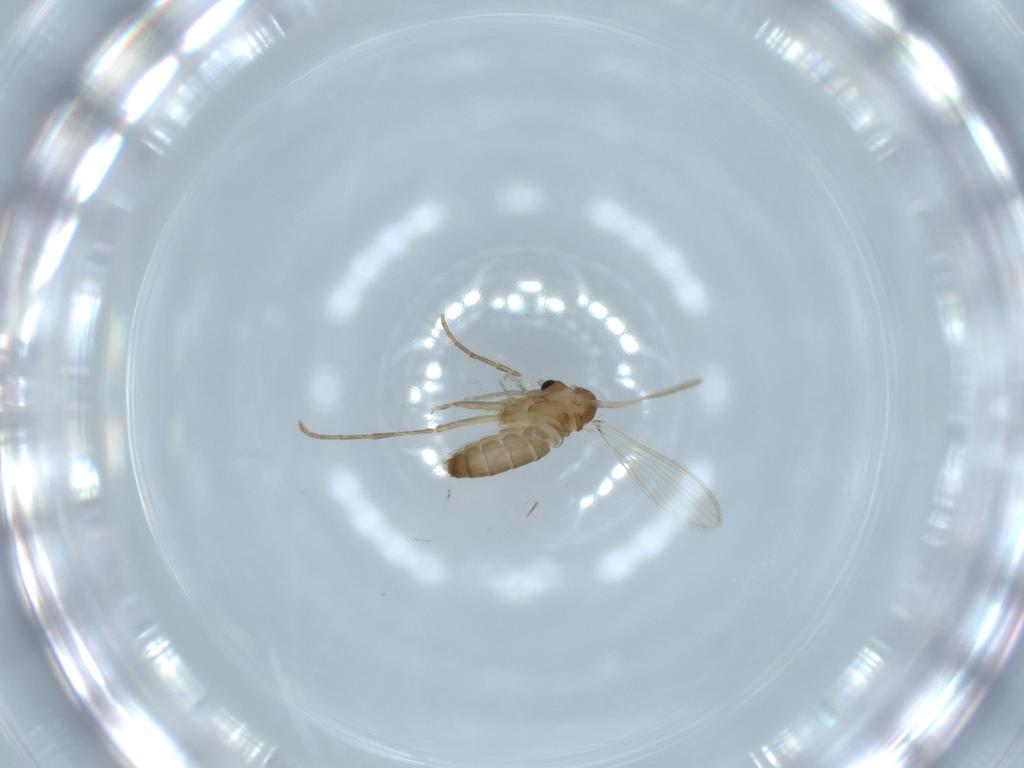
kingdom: Animalia
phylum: Arthropoda
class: Insecta
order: Diptera
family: Psychodidae
